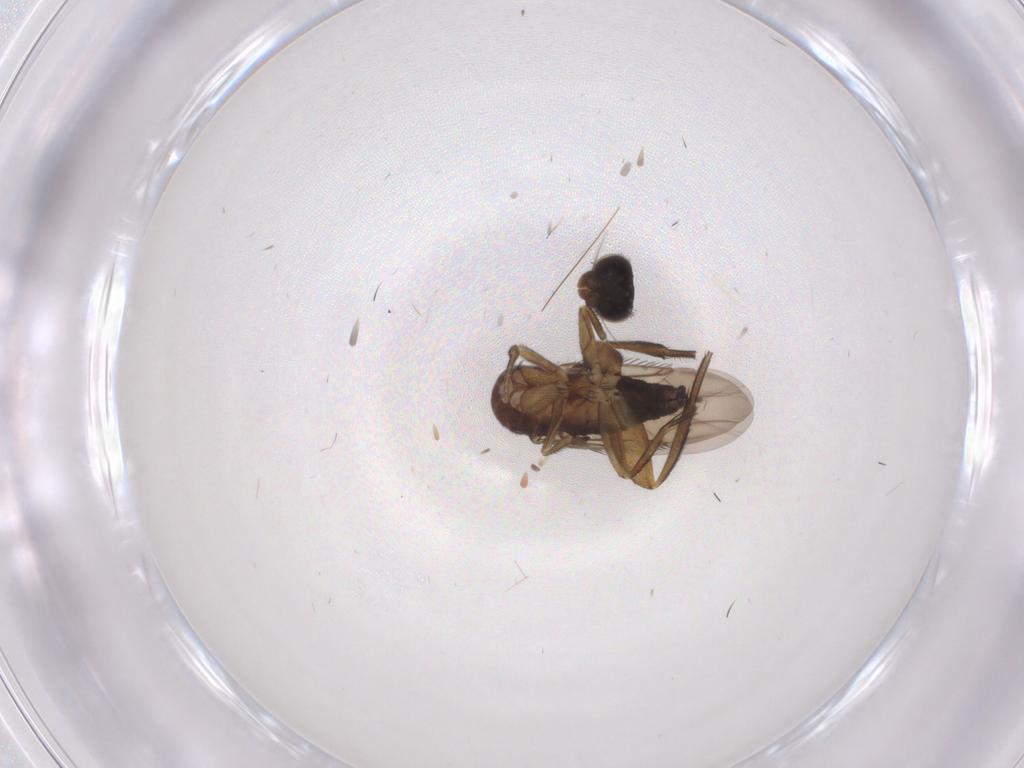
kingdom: Animalia
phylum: Arthropoda
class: Insecta
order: Diptera
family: Phoridae
